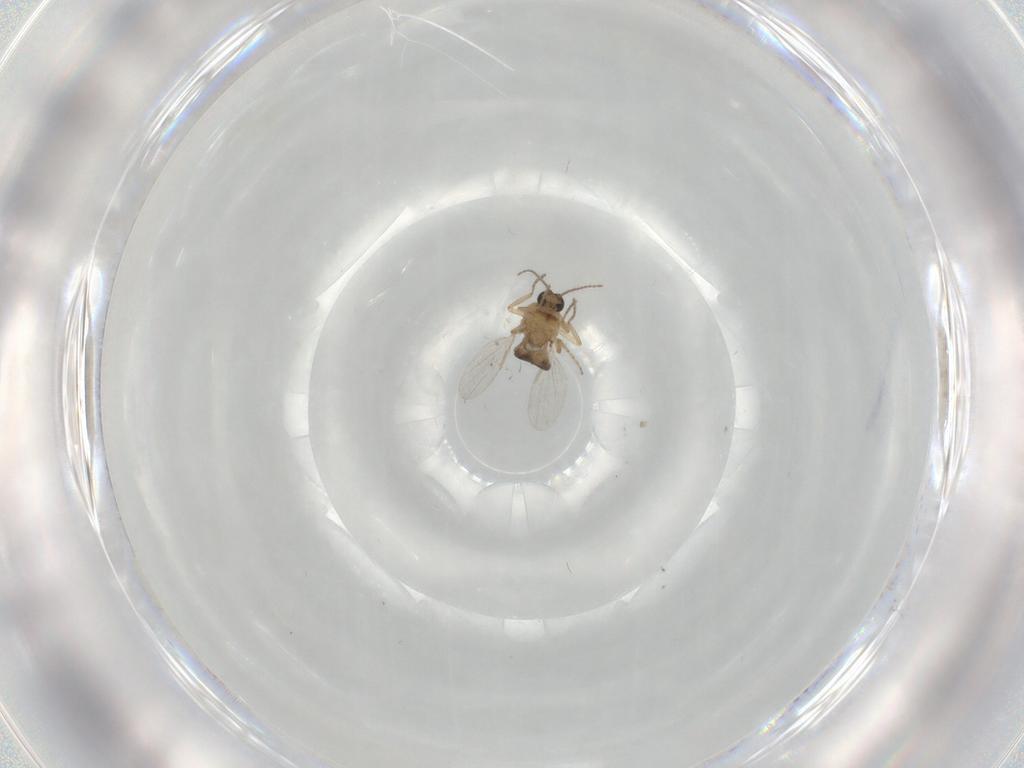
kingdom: Animalia
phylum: Arthropoda
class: Insecta
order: Diptera
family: Ceratopogonidae
